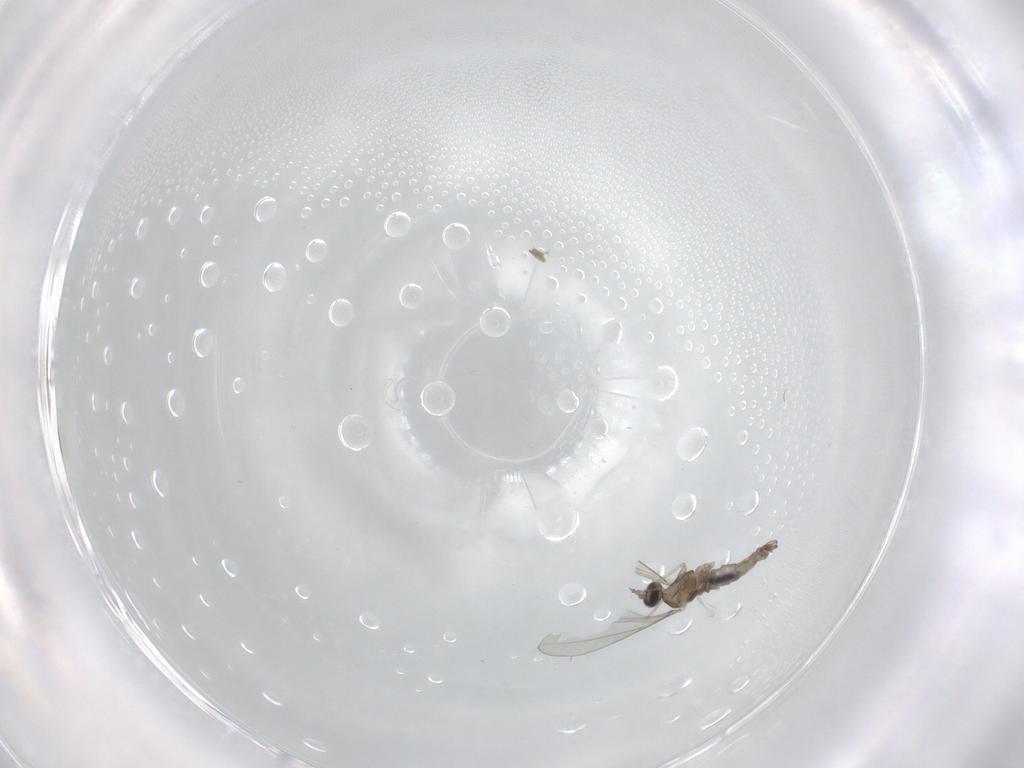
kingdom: Animalia
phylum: Arthropoda
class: Insecta
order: Diptera
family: Cecidomyiidae
